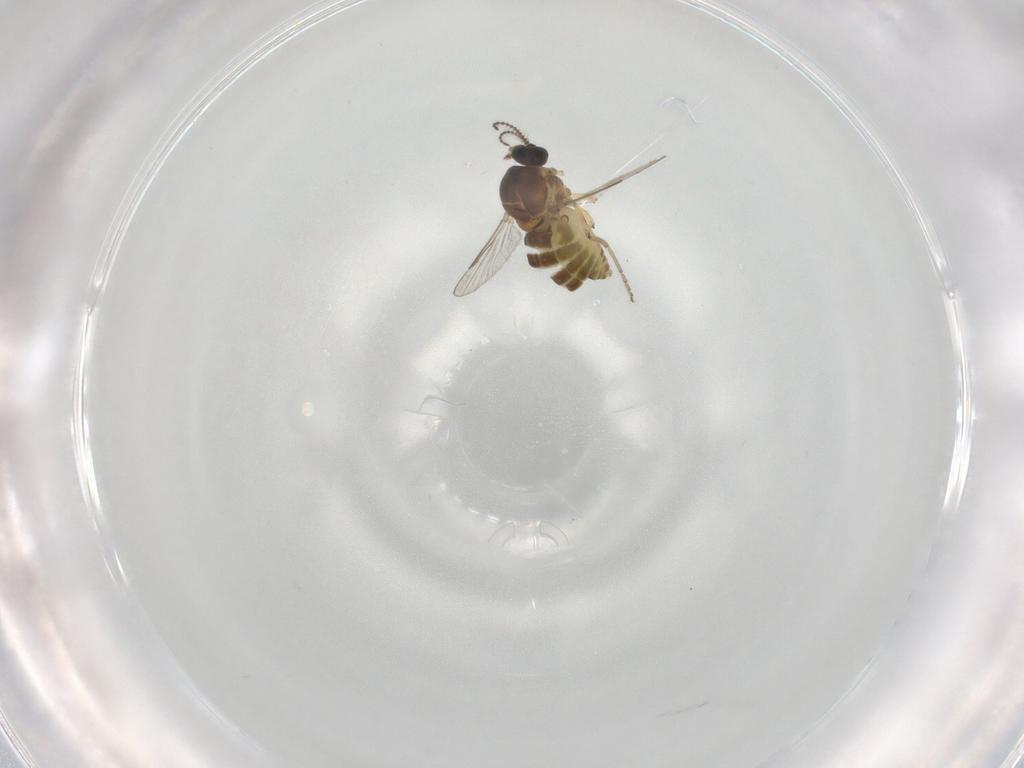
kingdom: Animalia
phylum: Arthropoda
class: Insecta
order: Diptera
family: Ceratopogonidae
